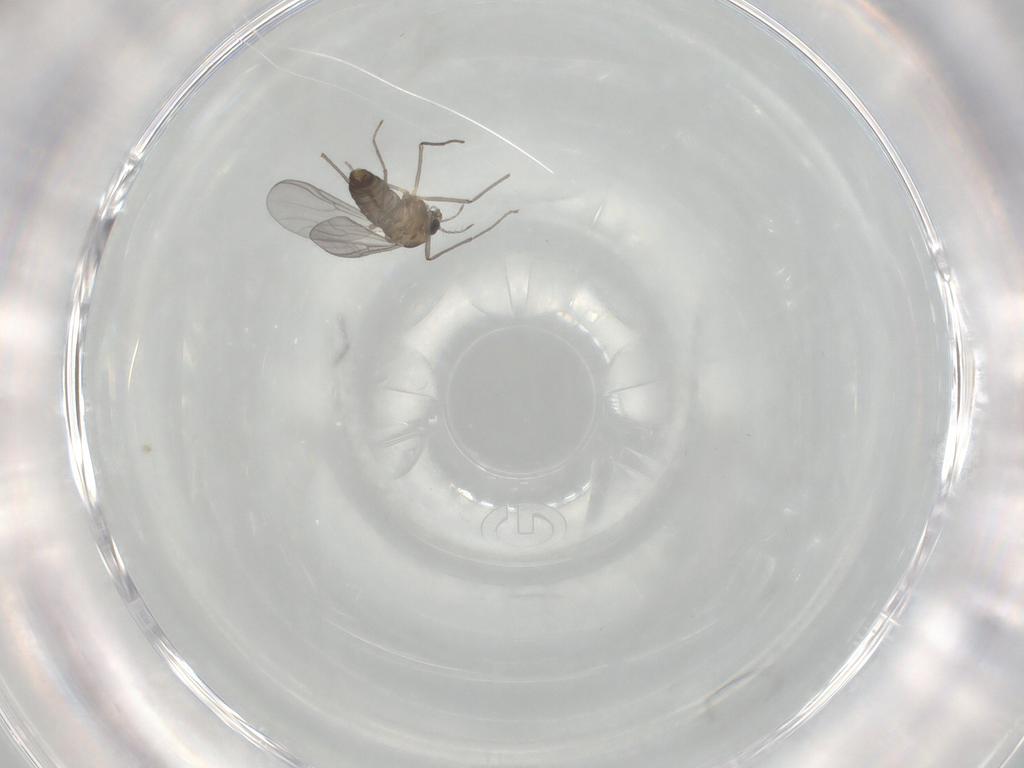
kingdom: Animalia
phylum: Arthropoda
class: Insecta
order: Diptera
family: Chironomidae
